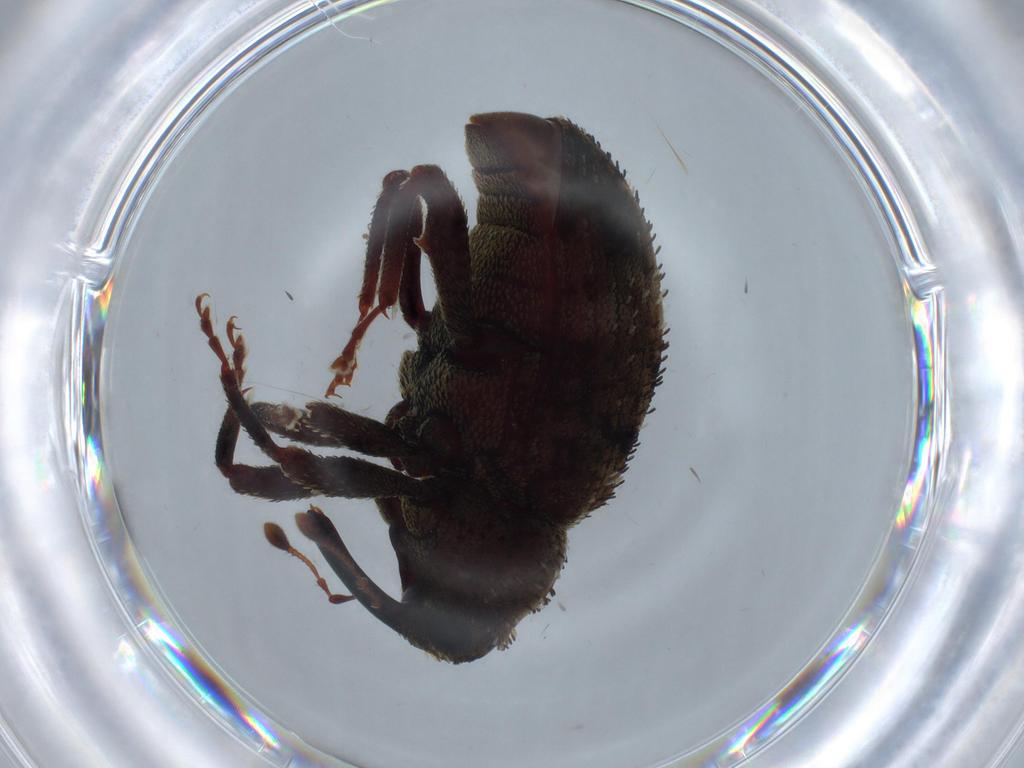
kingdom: Animalia
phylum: Arthropoda
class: Insecta
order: Coleoptera
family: Curculionidae
